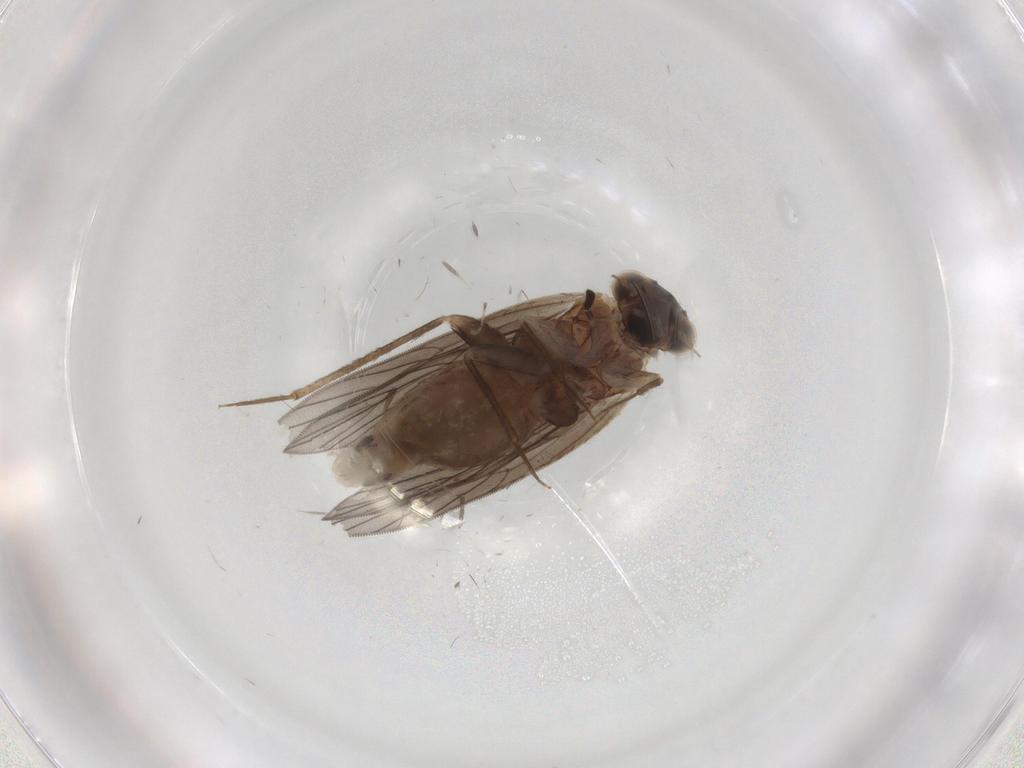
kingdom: Animalia
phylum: Arthropoda
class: Insecta
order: Psocodea
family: Lepidopsocidae
